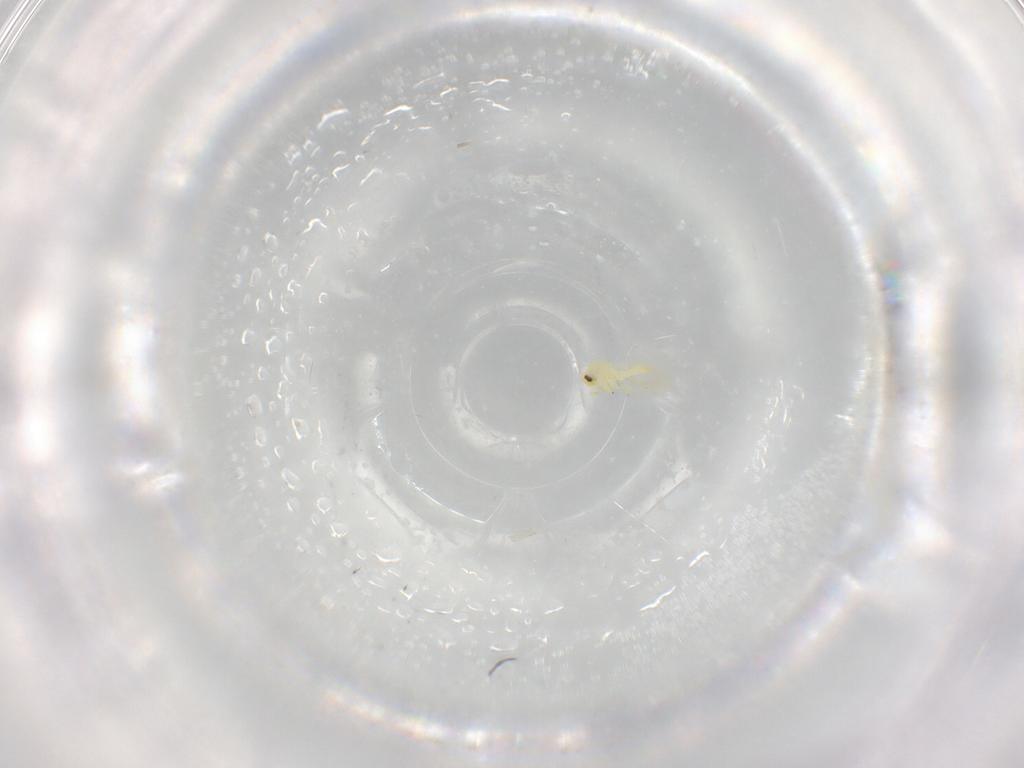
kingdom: Animalia
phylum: Arthropoda
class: Insecta
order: Hemiptera
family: Aleyrodidae
